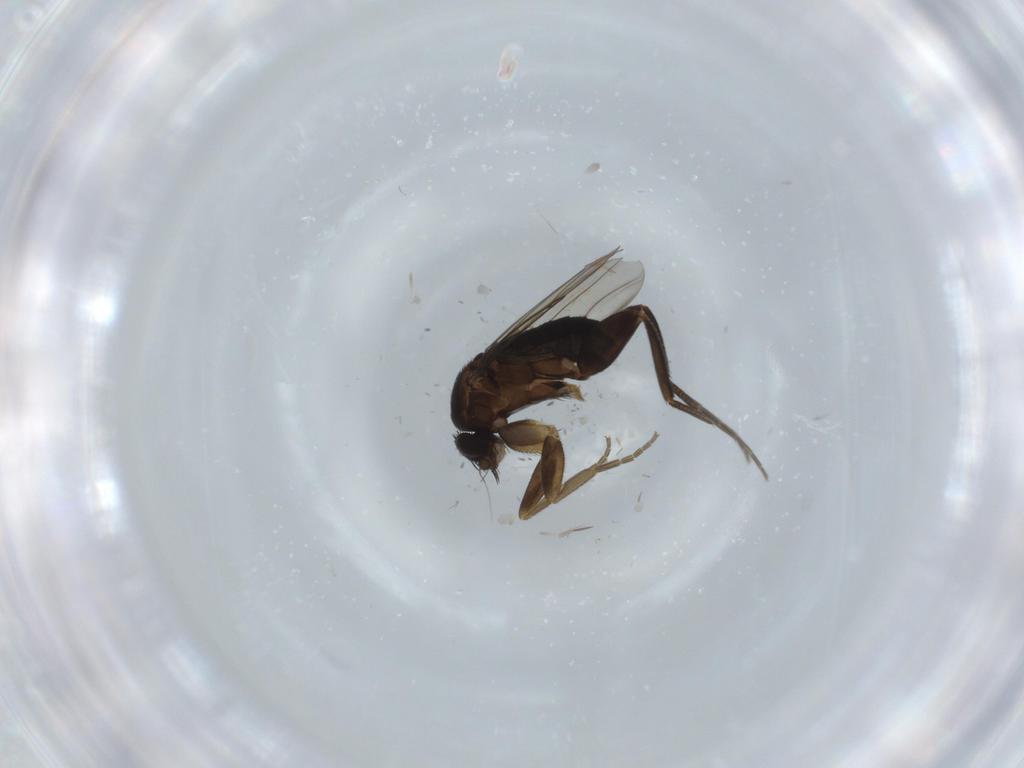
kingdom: Animalia
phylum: Arthropoda
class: Insecta
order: Diptera
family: Phoridae
